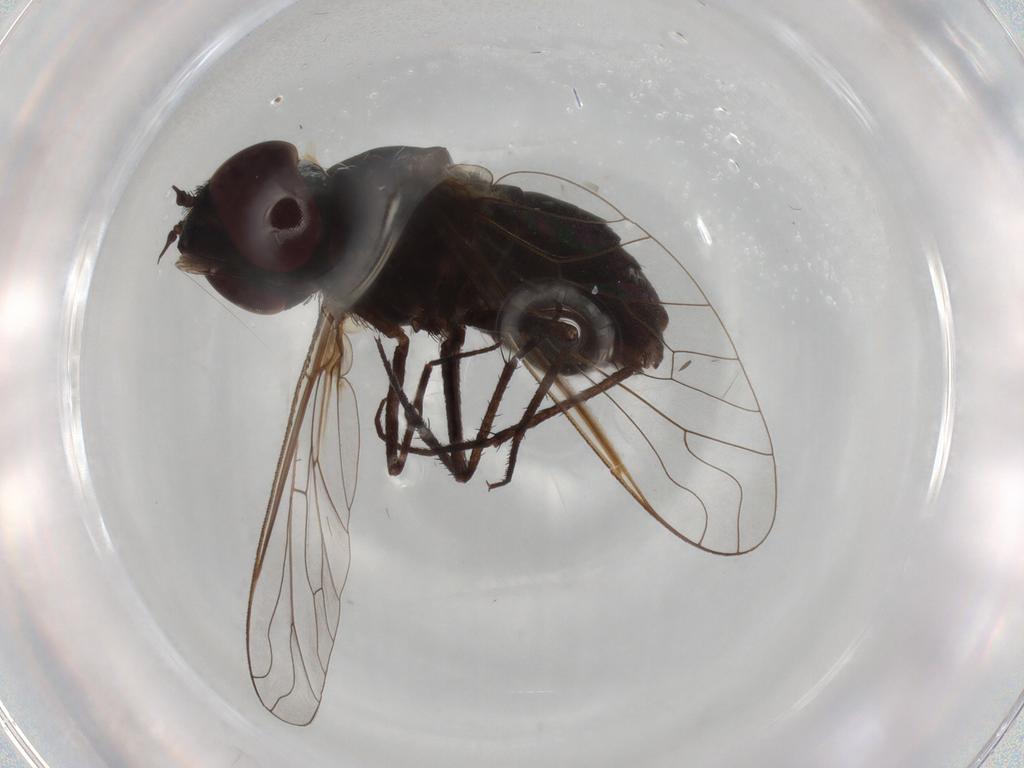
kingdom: Animalia
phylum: Arthropoda
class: Insecta
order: Diptera
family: Bombyliidae
